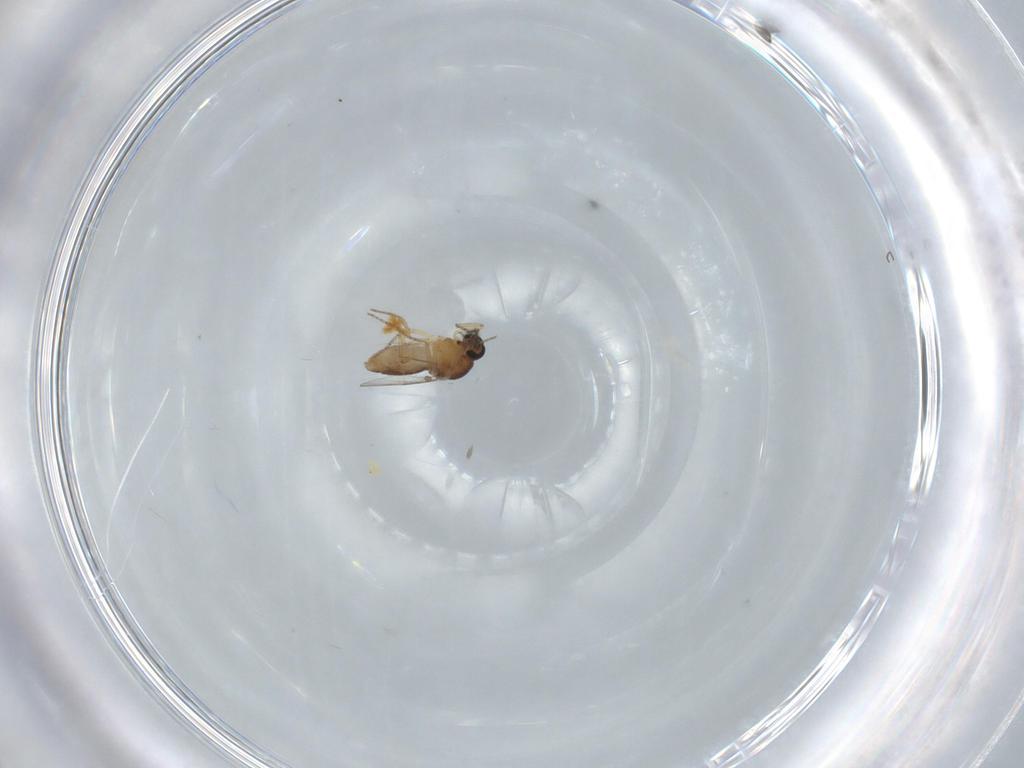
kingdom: Animalia
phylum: Arthropoda
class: Insecta
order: Diptera
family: Ceratopogonidae
